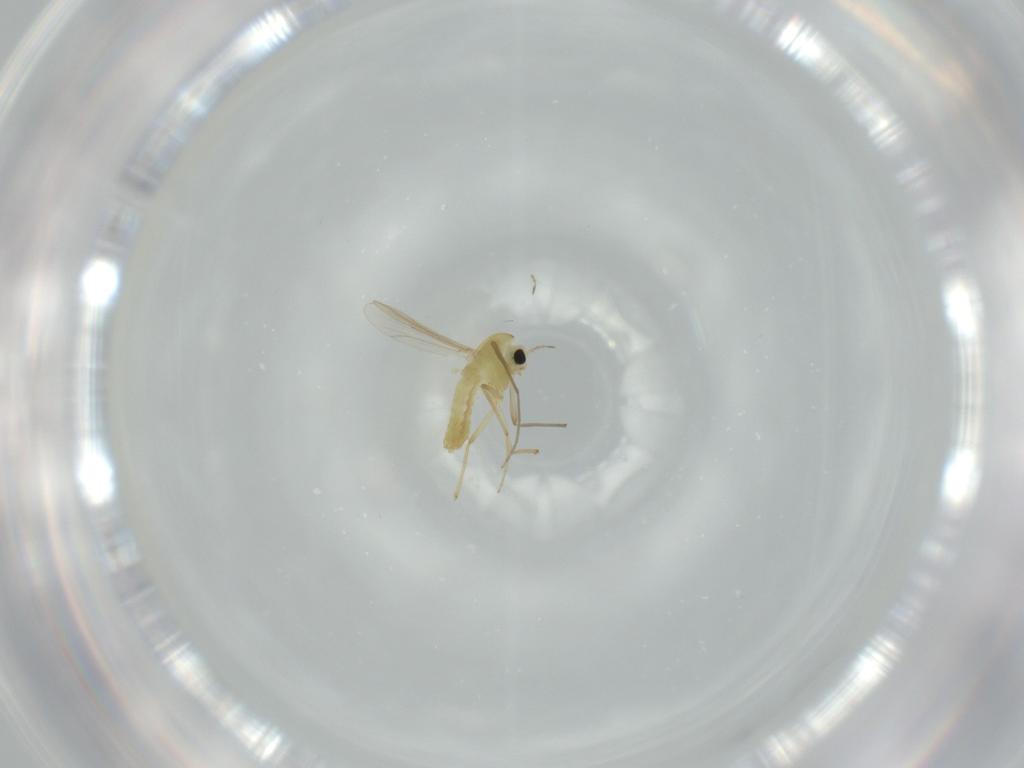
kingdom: Animalia
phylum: Arthropoda
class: Insecta
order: Diptera
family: Chironomidae
